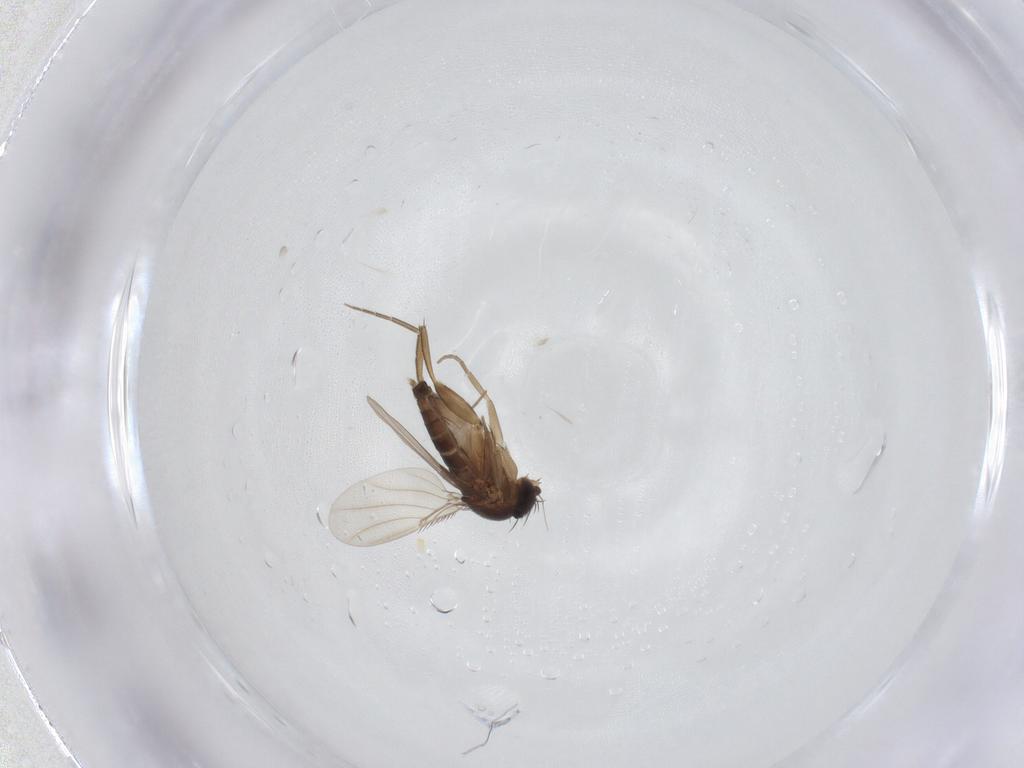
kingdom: Animalia
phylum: Arthropoda
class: Insecta
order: Diptera
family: Phoridae
